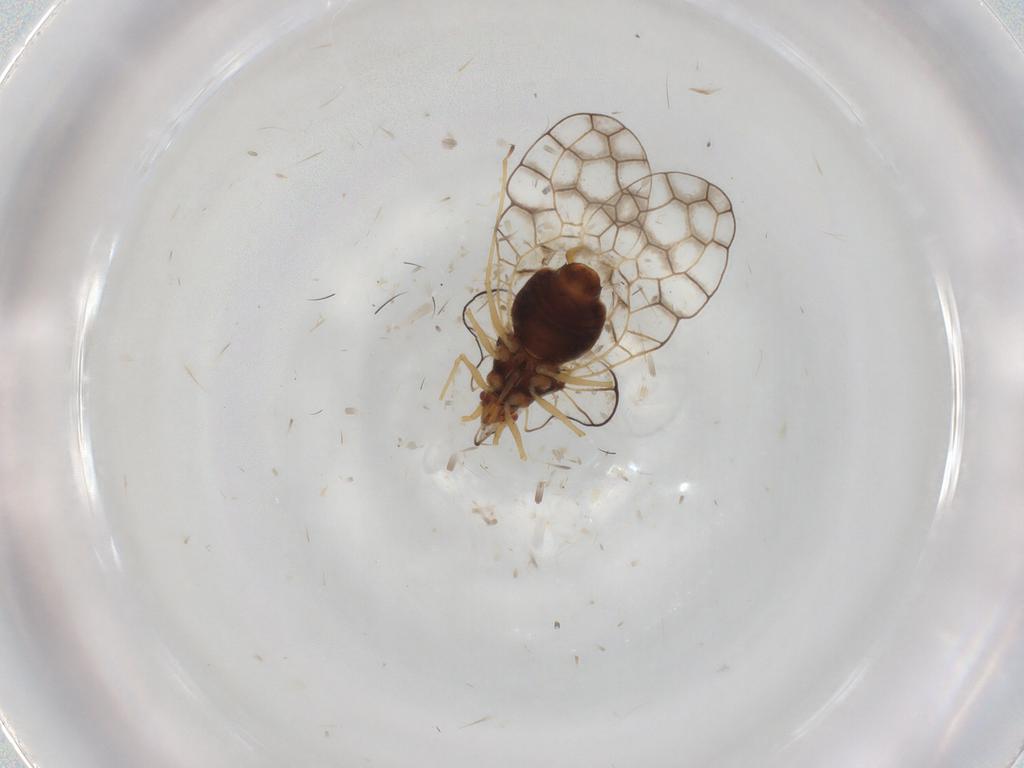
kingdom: Animalia
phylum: Arthropoda
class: Insecta
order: Hemiptera
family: Tingidae
